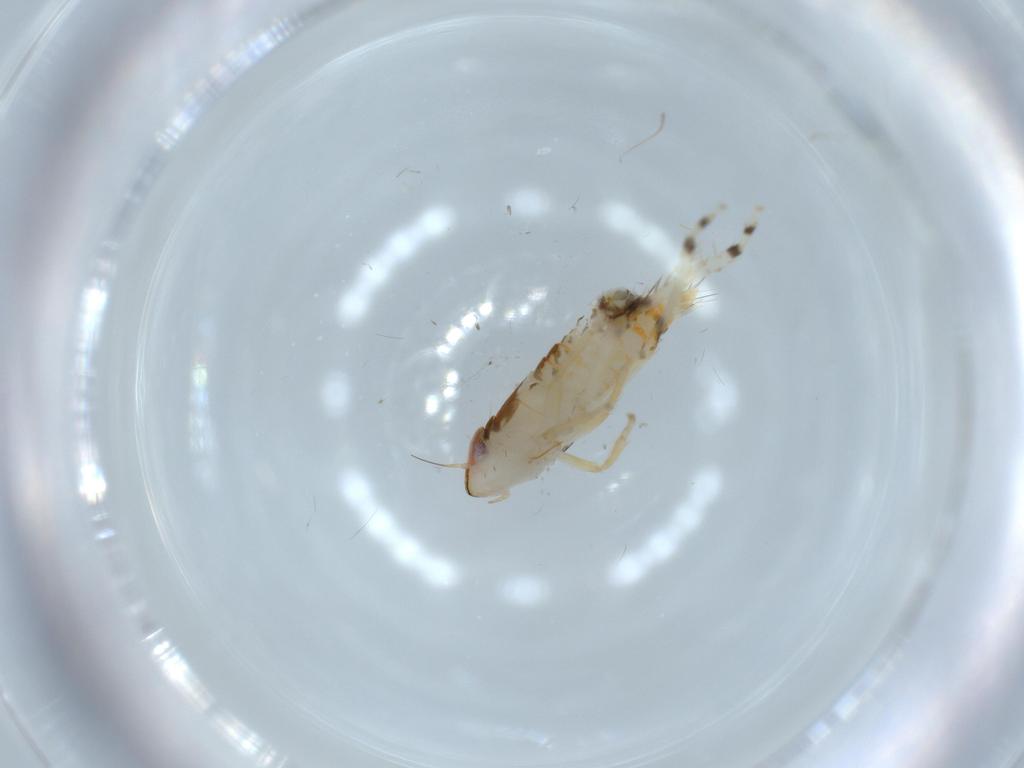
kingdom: Animalia
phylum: Arthropoda
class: Insecta
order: Hemiptera
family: Cicadellidae
